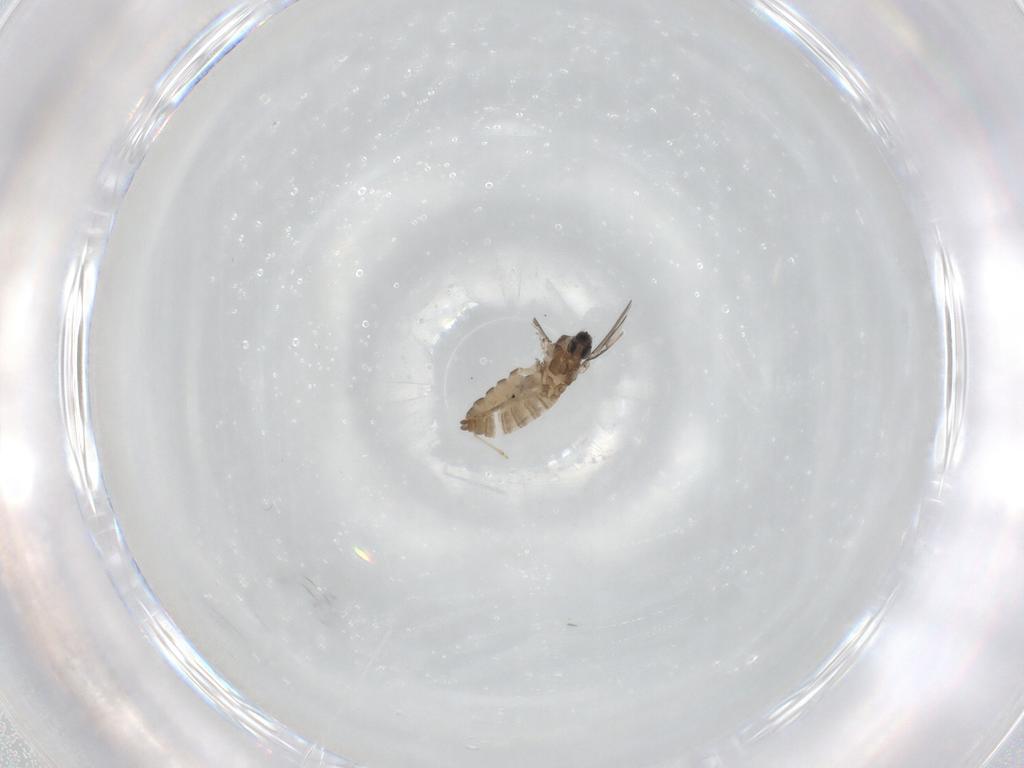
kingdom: Animalia
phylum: Arthropoda
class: Insecta
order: Diptera
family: Cecidomyiidae
